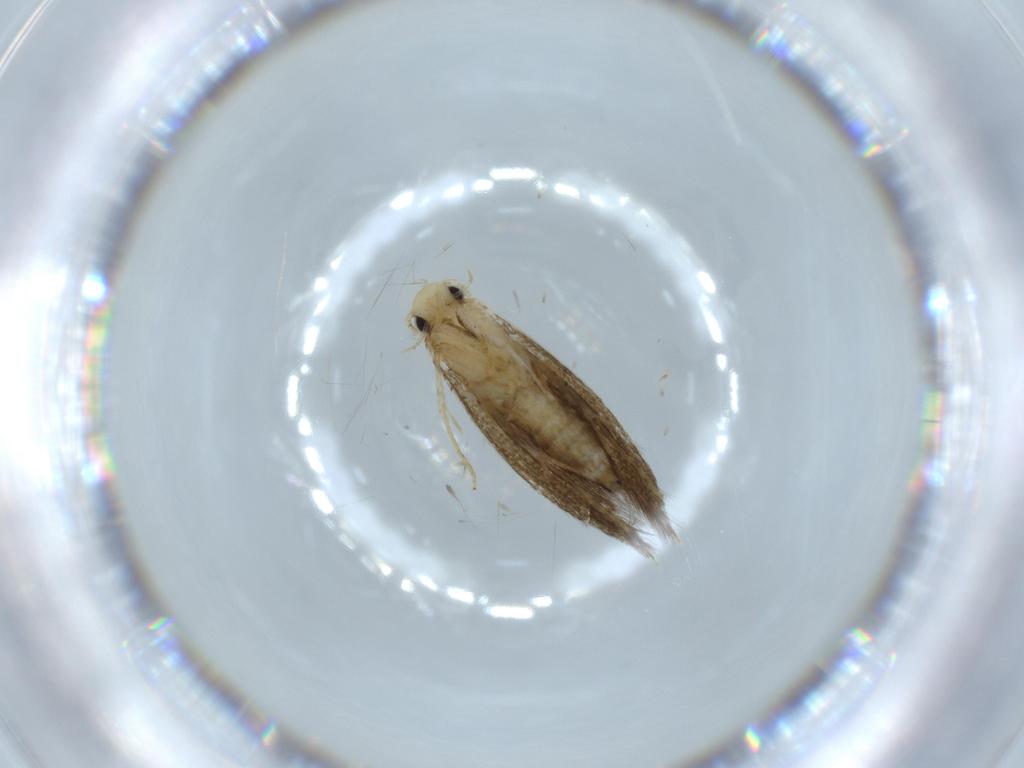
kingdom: Animalia
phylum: Arthropoda
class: Insecta
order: Lepidoptera
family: Tineidae
